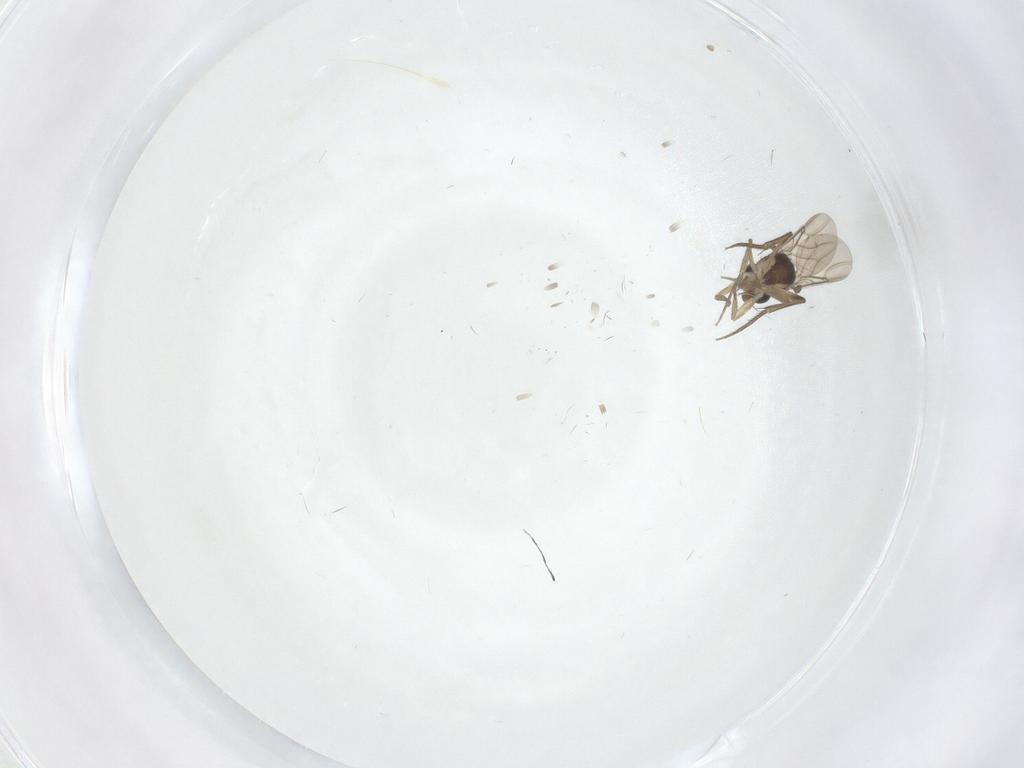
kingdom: Animalia
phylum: Arthropoda
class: Insecta
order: Diptera
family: Phoridae
